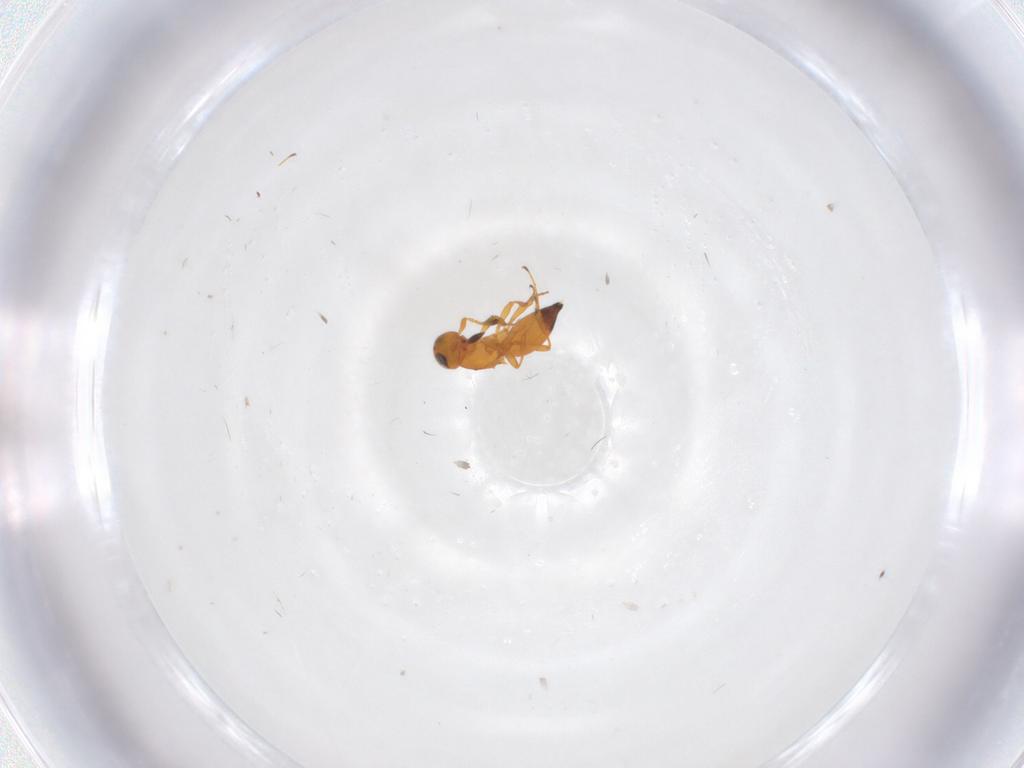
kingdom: Animalia
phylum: Arthropoda
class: Insecta
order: Hymenoptera
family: Platygastridae
